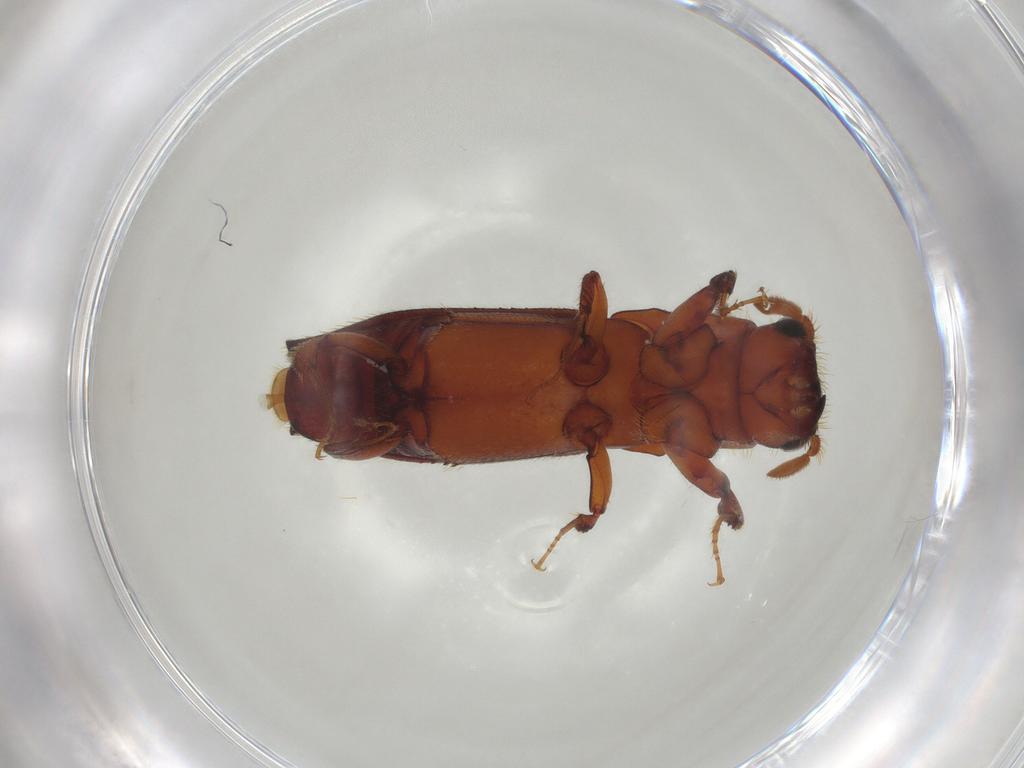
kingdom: Animalia
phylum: Arthropoda
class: Insecta
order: Coleoptera
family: Curculionidae
